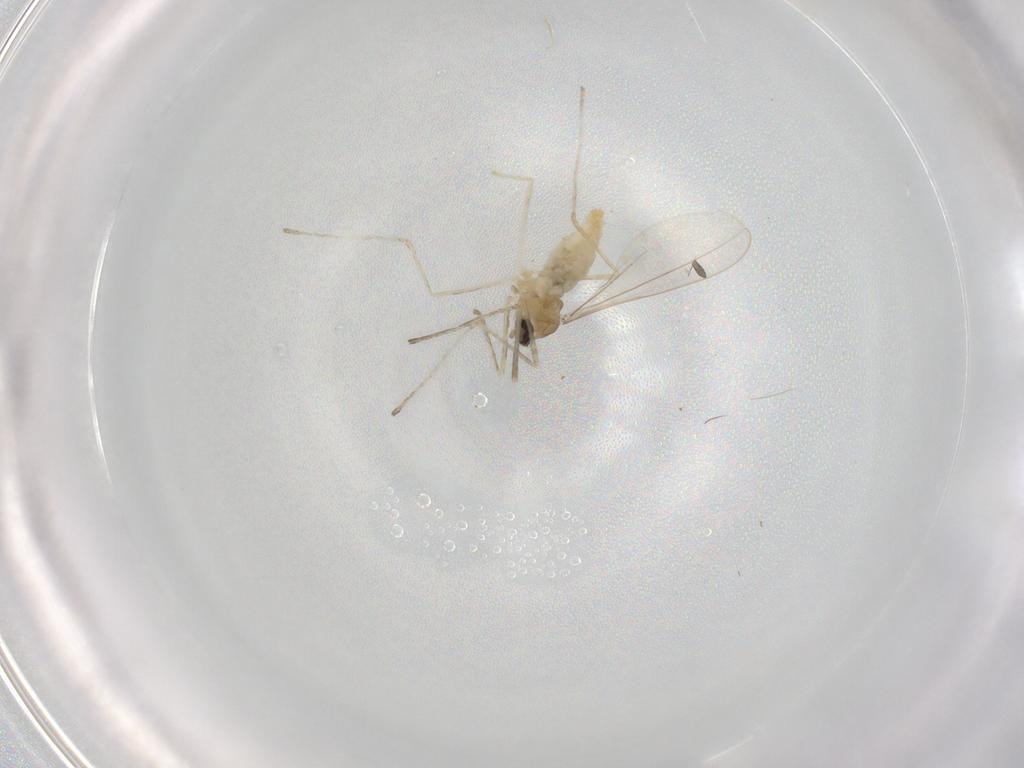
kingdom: Animalia
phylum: Arthropoda
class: Insecta
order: Diptera
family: Cecidomyiidae
